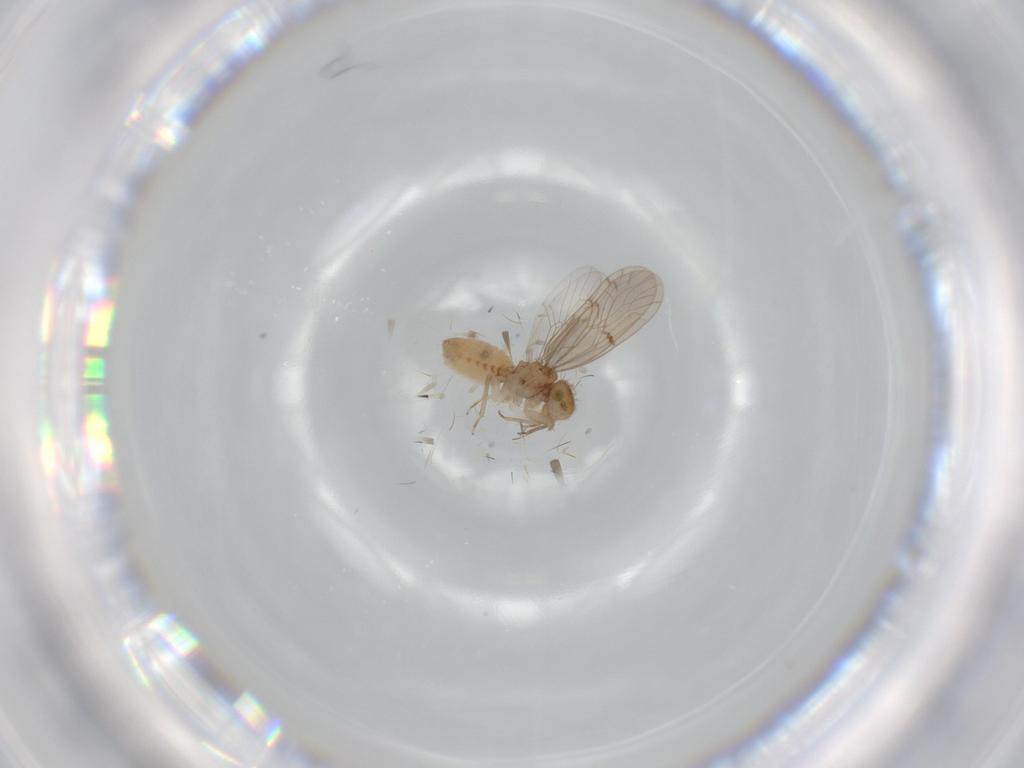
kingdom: Animalia
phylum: Arthropoda
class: Insecta
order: Psocodea
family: Ectopsocidae
